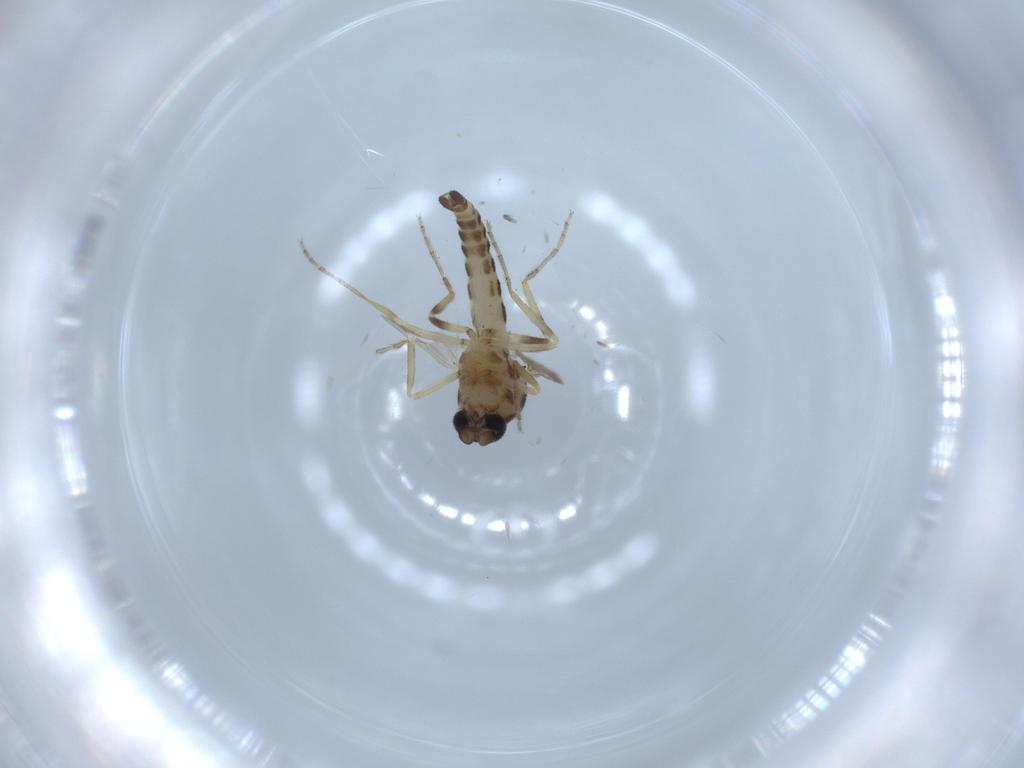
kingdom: Animalia
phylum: Arthropoda
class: Insecta
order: Diptera
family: Ceratopogonidae
